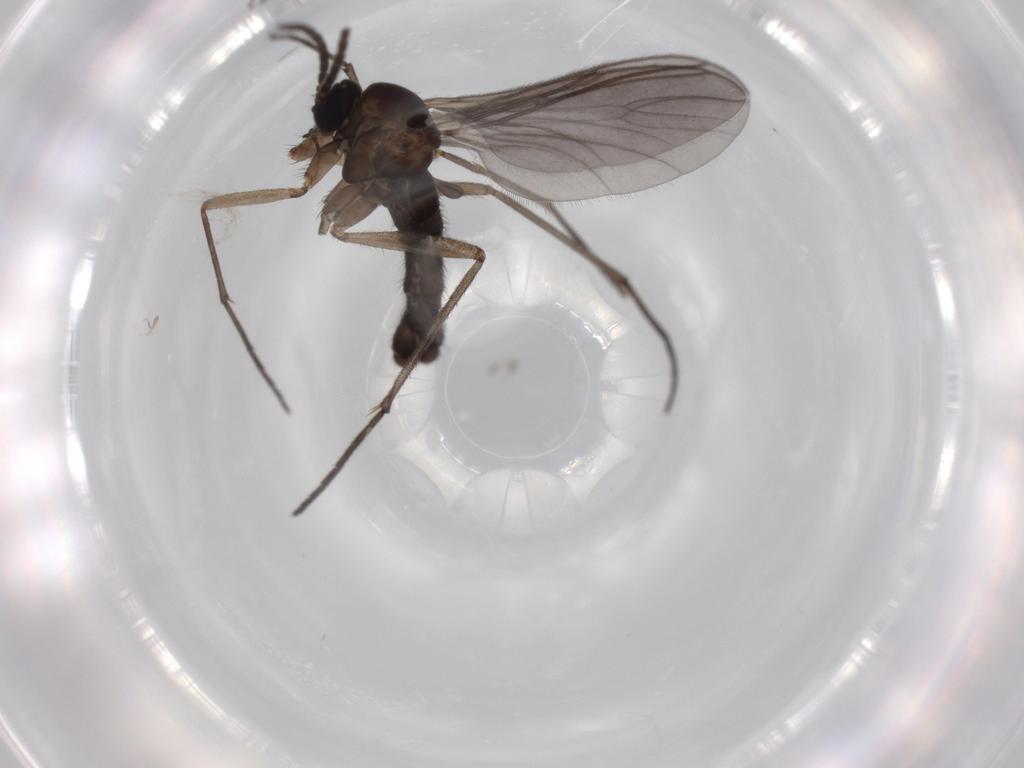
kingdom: Animalia
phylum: Arthropoda
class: Insecta
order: Diptera
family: Sciaridae
